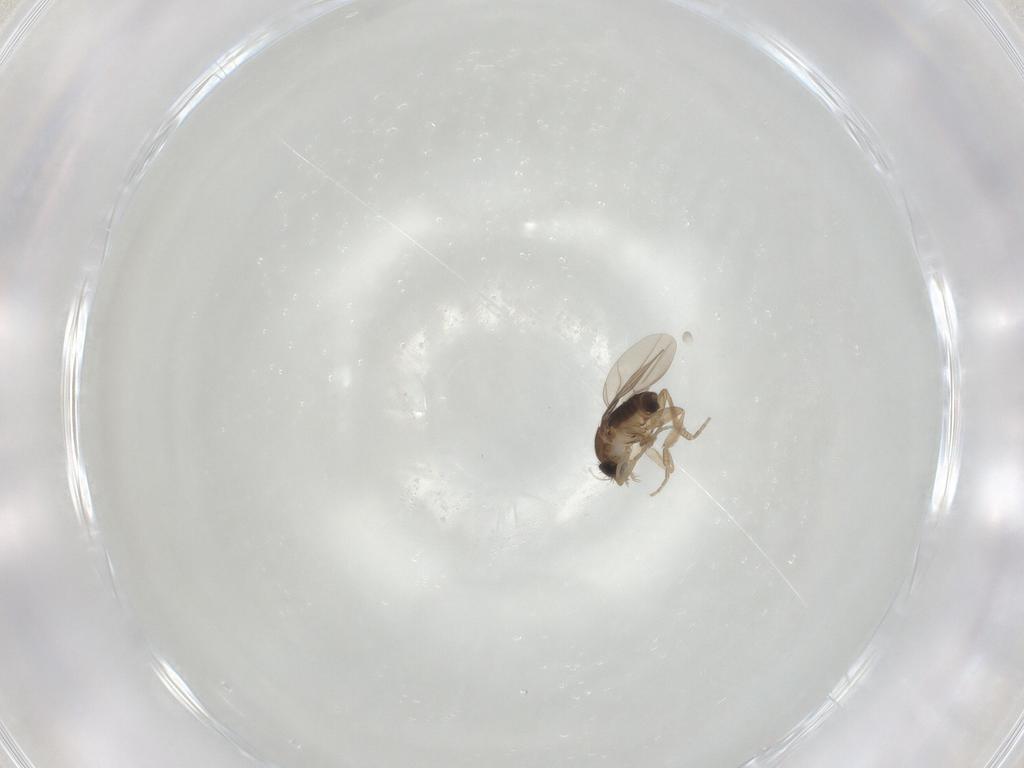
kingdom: Animalia
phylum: Arthropoda
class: Insecta
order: Diptera
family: Phoridae
